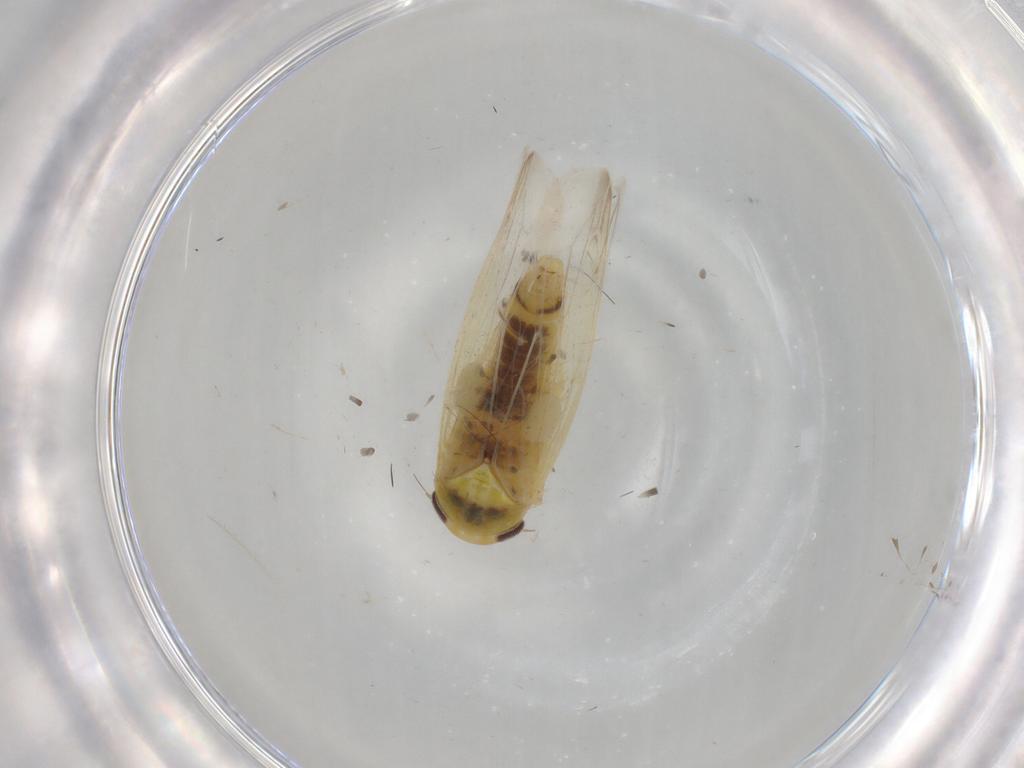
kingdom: Animalia
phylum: Arthropoda
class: Insecta
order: Hemiptera
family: Cicadellidae
